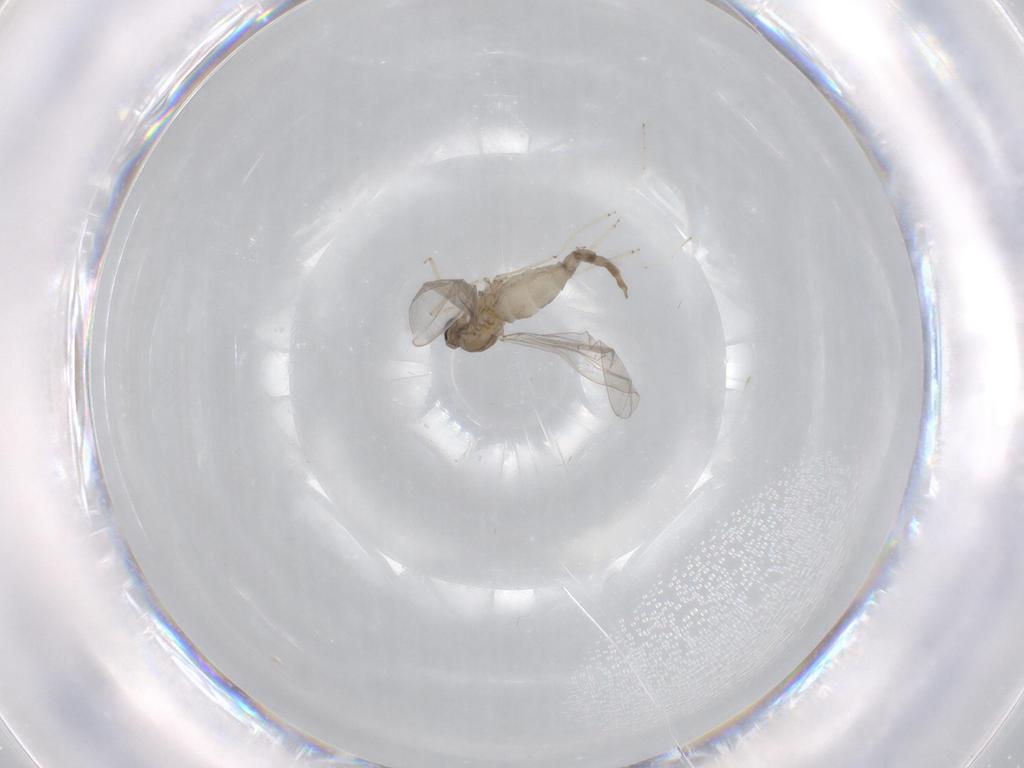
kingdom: Animalia
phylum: Arthropoda
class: Insecta
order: Diptera
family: Cecidomyiidae
